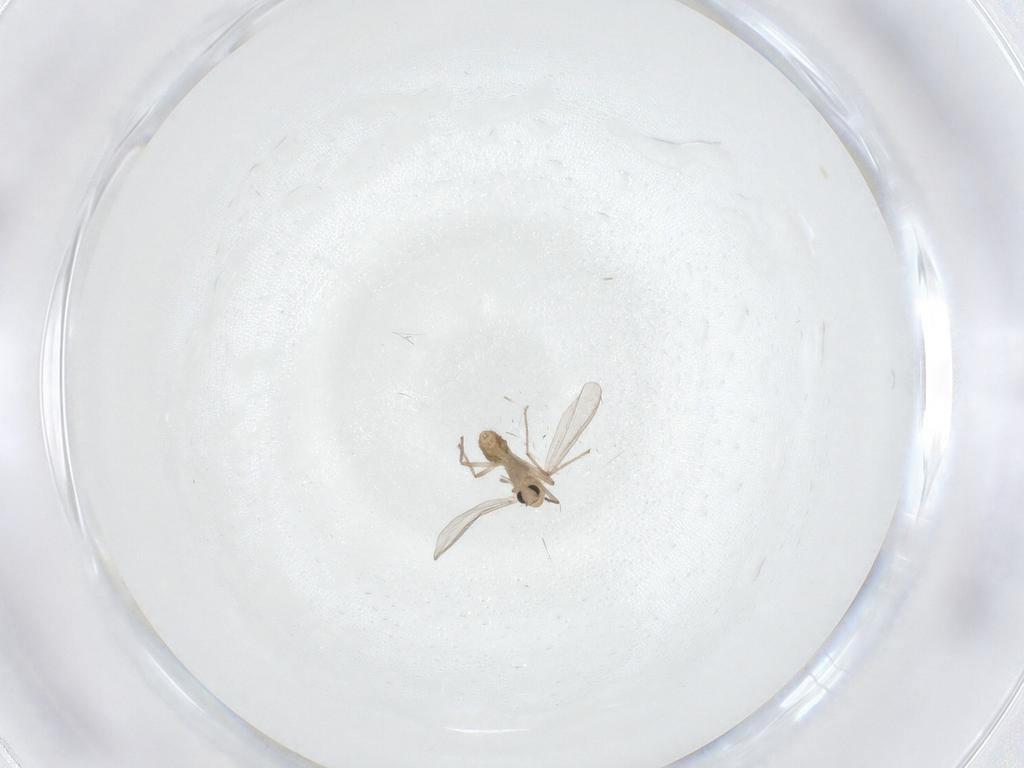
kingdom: Animalia
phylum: Arthropoda
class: Insecta
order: Diptera
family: Chironomidae
